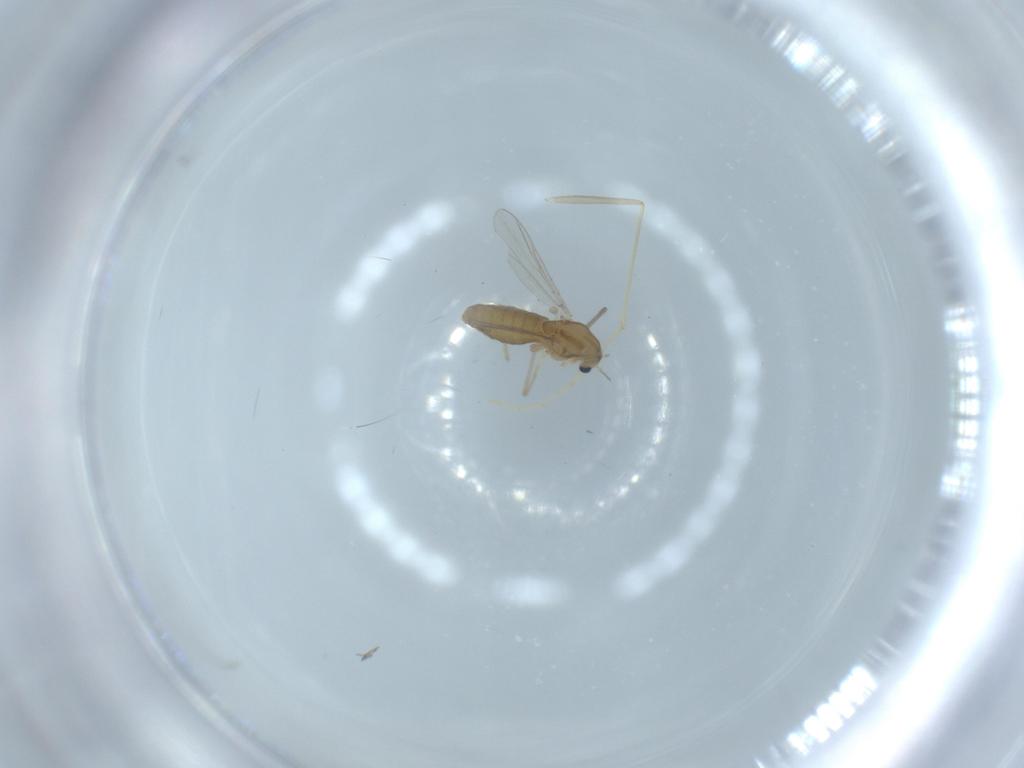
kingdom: Animalia
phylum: Arthropoda
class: Insecta
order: Diptera
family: Chironomidae
